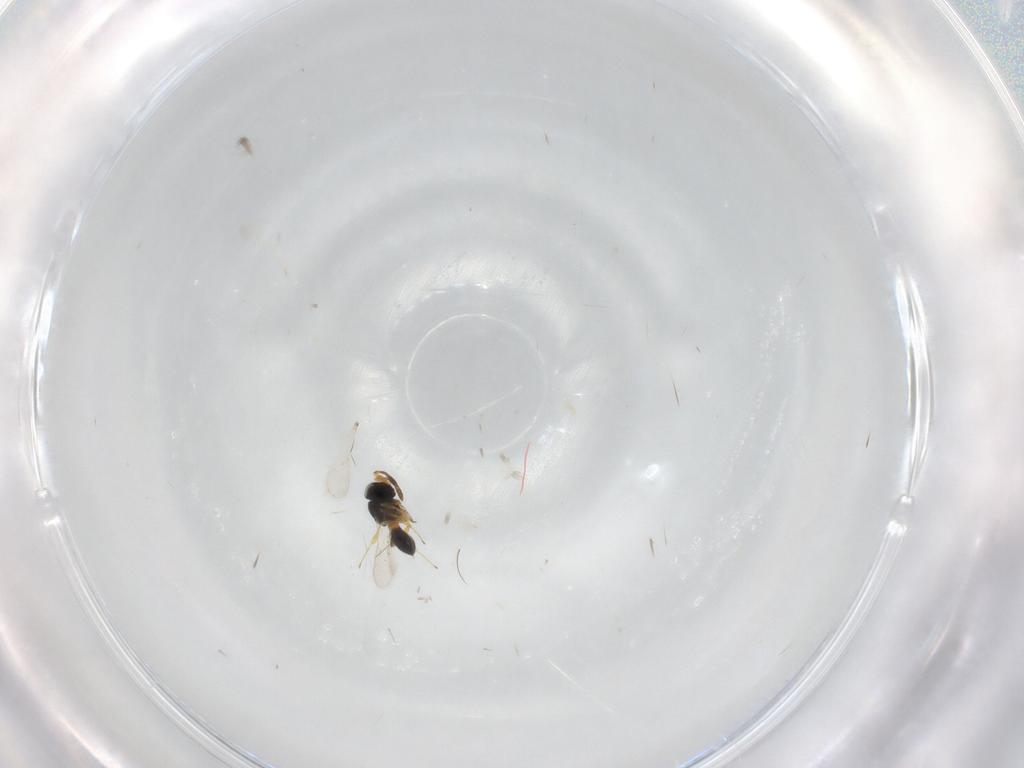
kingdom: Animalia
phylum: Arthropoda
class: Insecta
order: Hymenoptera
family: Scelionidae
